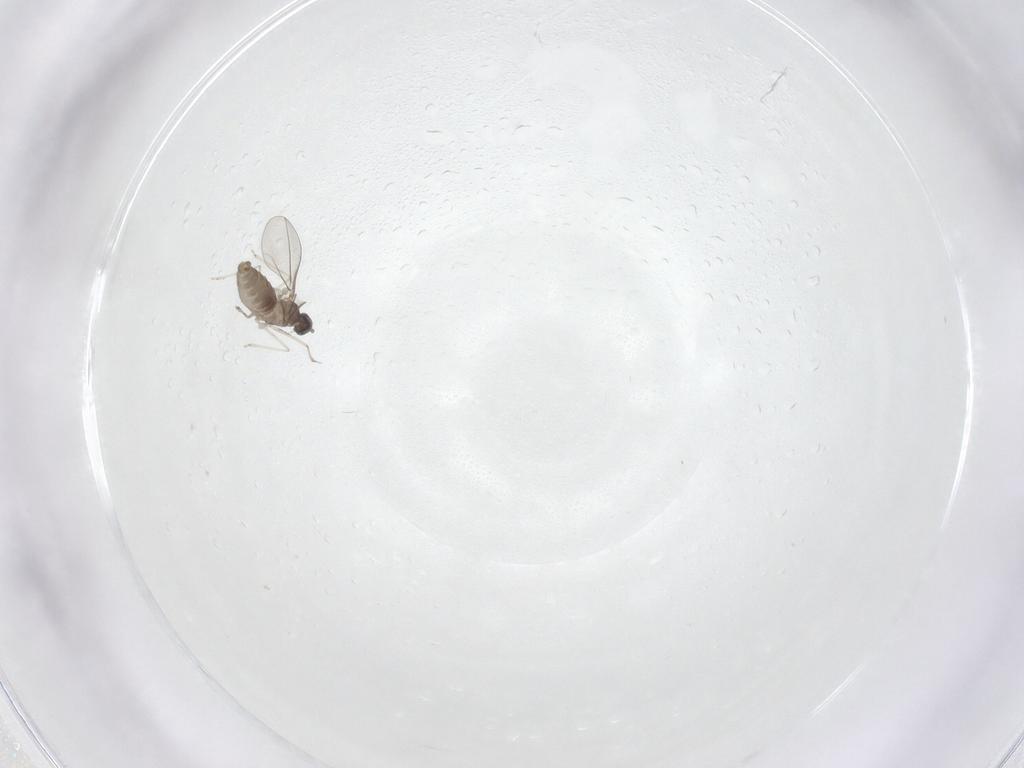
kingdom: Animalia
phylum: Arthropoda
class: Insecta
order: Diptera
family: Cecidomyiidae
